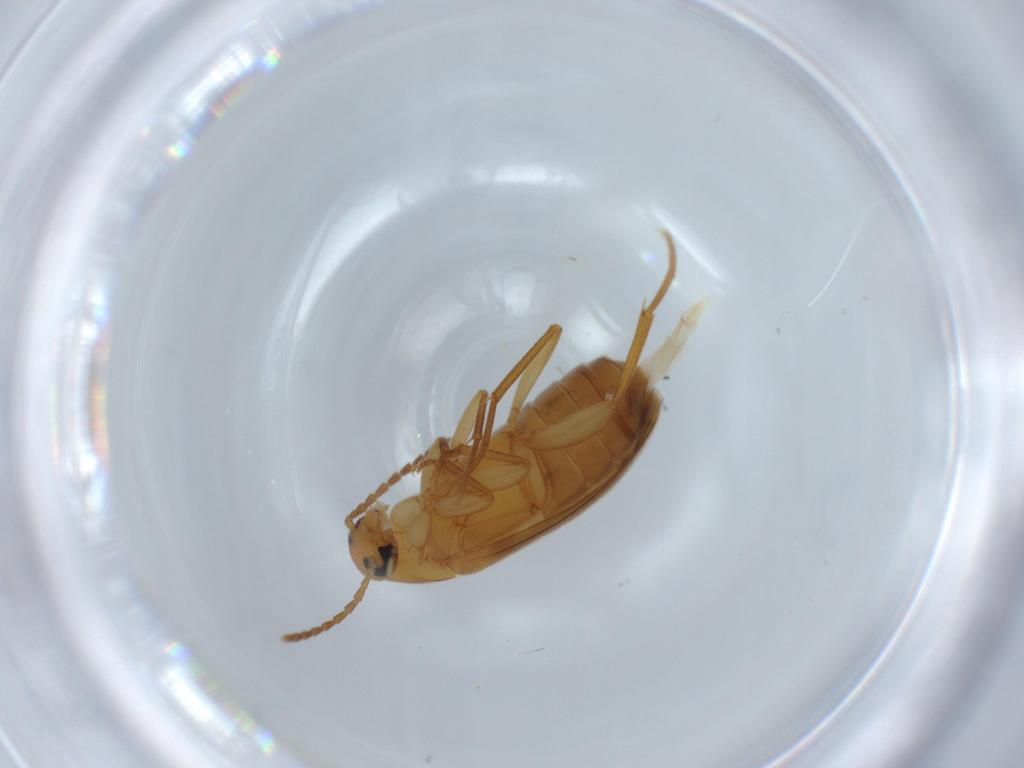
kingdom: Animalia
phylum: Arthropoda
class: Insecta
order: Coleoptera
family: Scraptiidae
